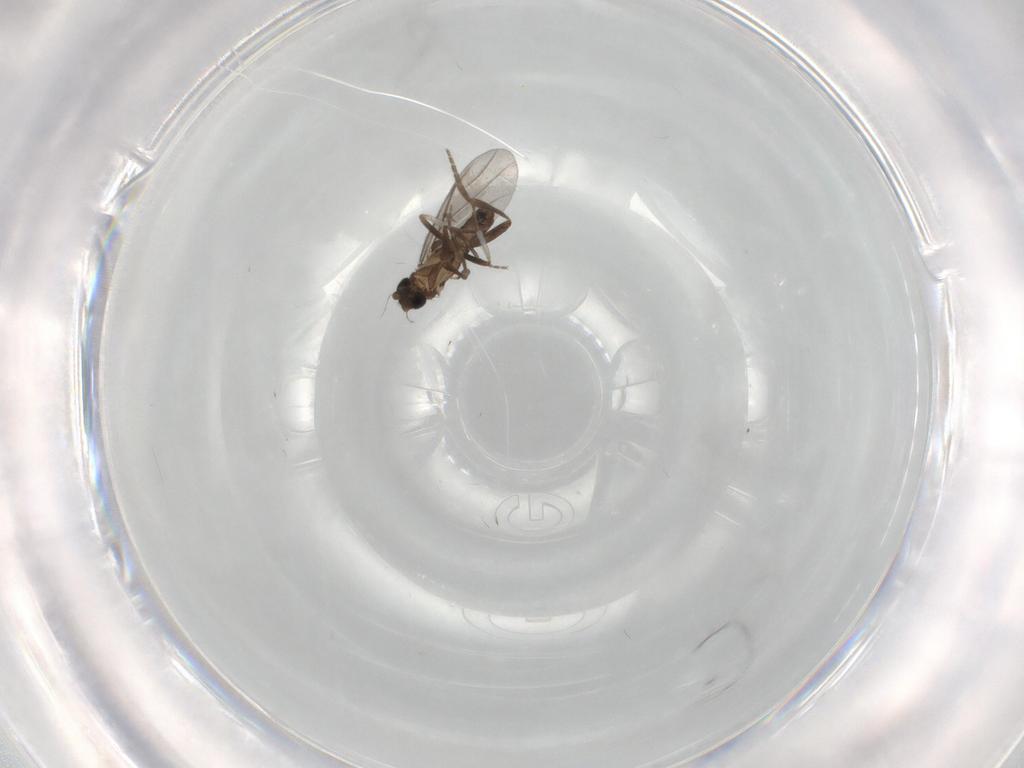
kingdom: Animalia
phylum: Arthropoda
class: Insecta
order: Diptera
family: Phoridae
